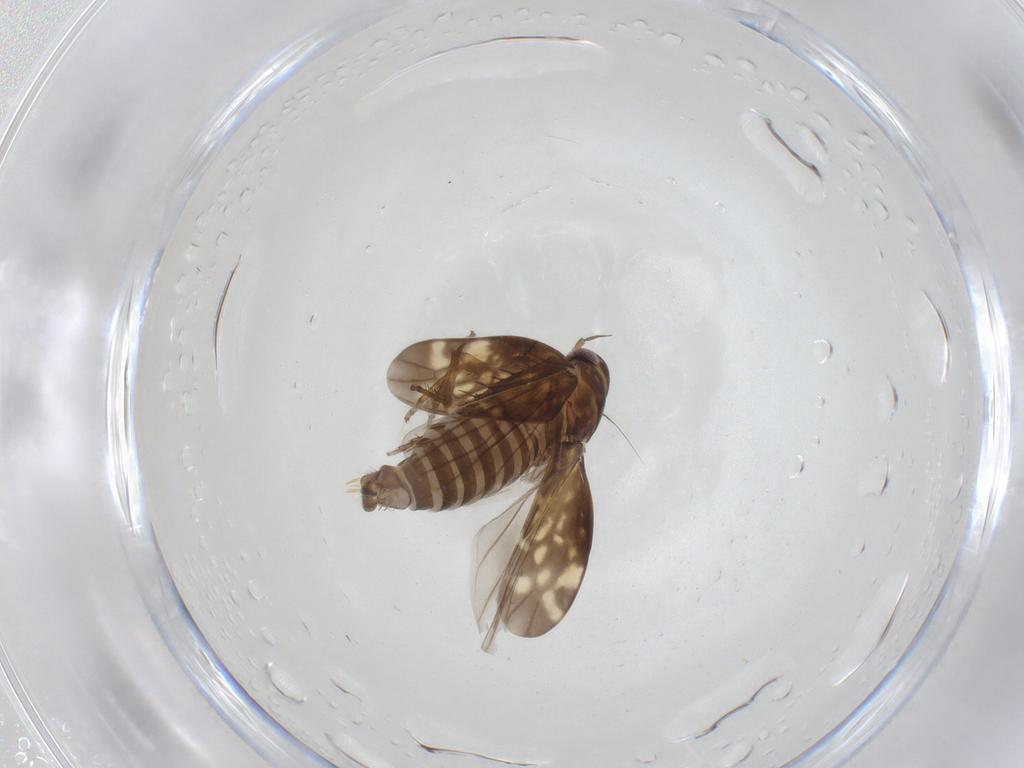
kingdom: Animalia
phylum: Arthropoda
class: Insecta
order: Hemiptera
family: Cicadellidae
